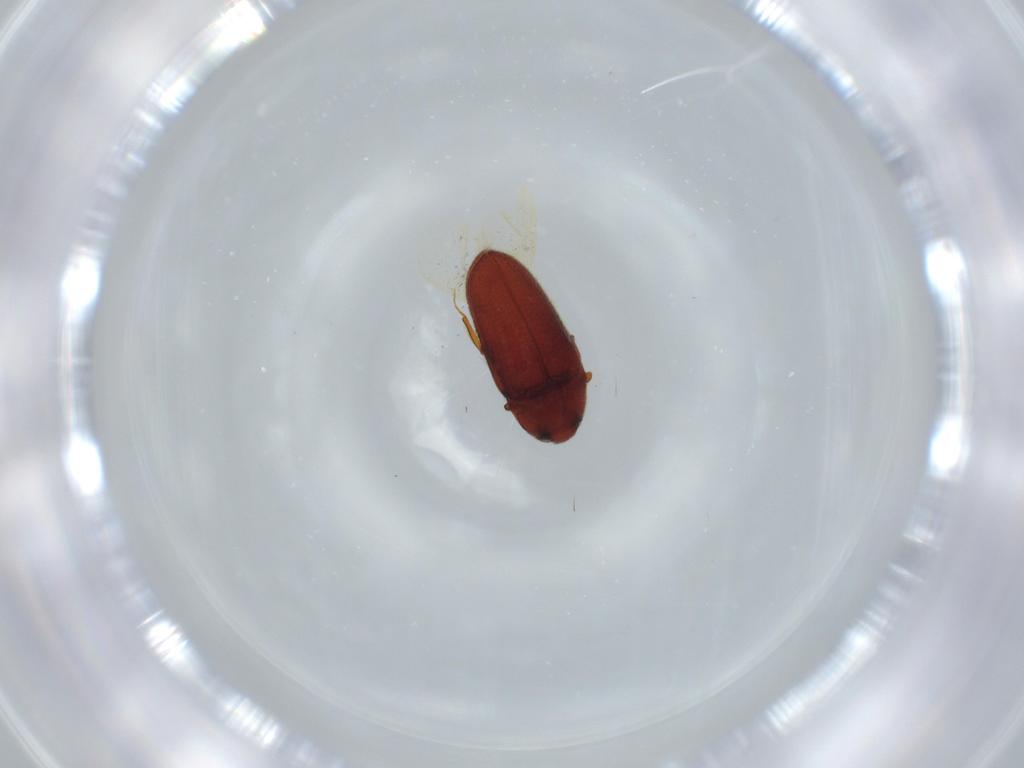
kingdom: Animalia
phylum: Arthropoda
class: Insecta
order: Coleoptera
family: Throscidae
